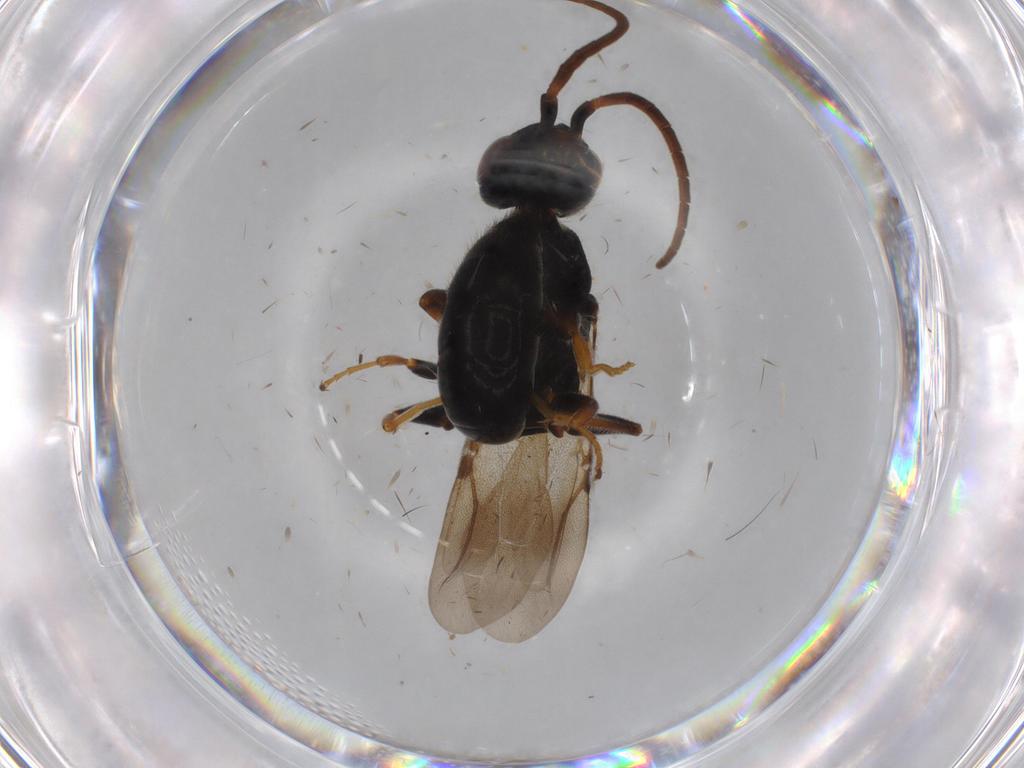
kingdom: Animalia
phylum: Arthropoda
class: Insecta
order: Hymenoptera
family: Bethylidae
